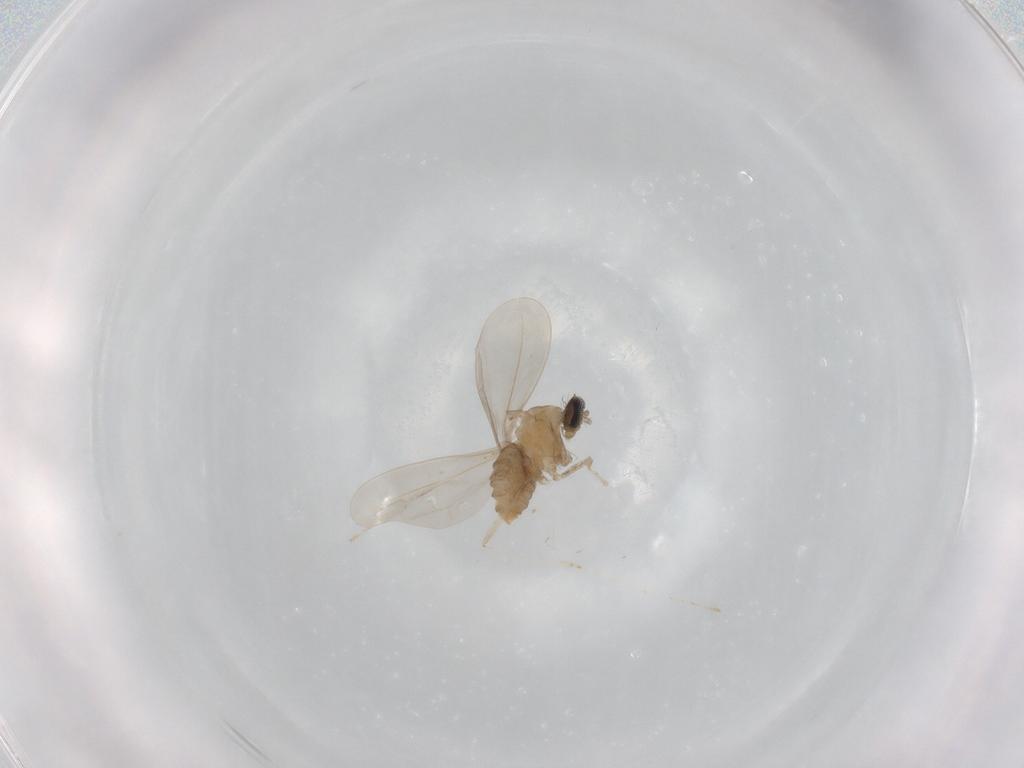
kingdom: Animalia
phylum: Arthropoda
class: Insecta
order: Diptera
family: Cecidomyiidae
